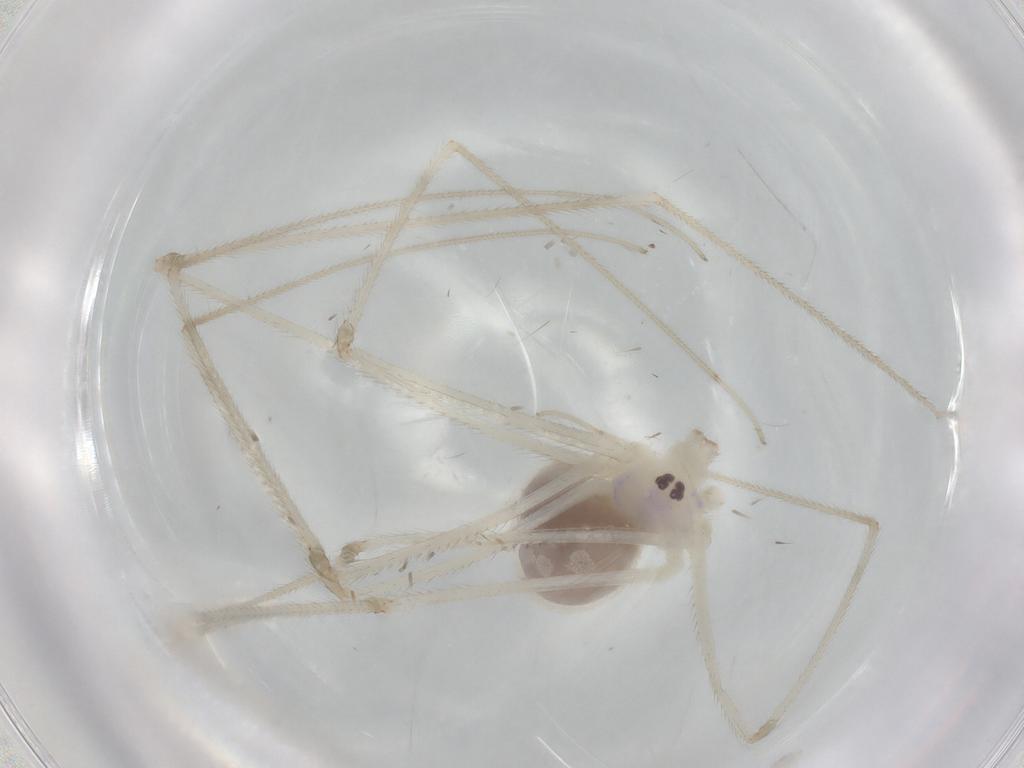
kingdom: Animalia
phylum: Arthropoda
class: Arachnida
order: Araneae
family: Pholcidae
